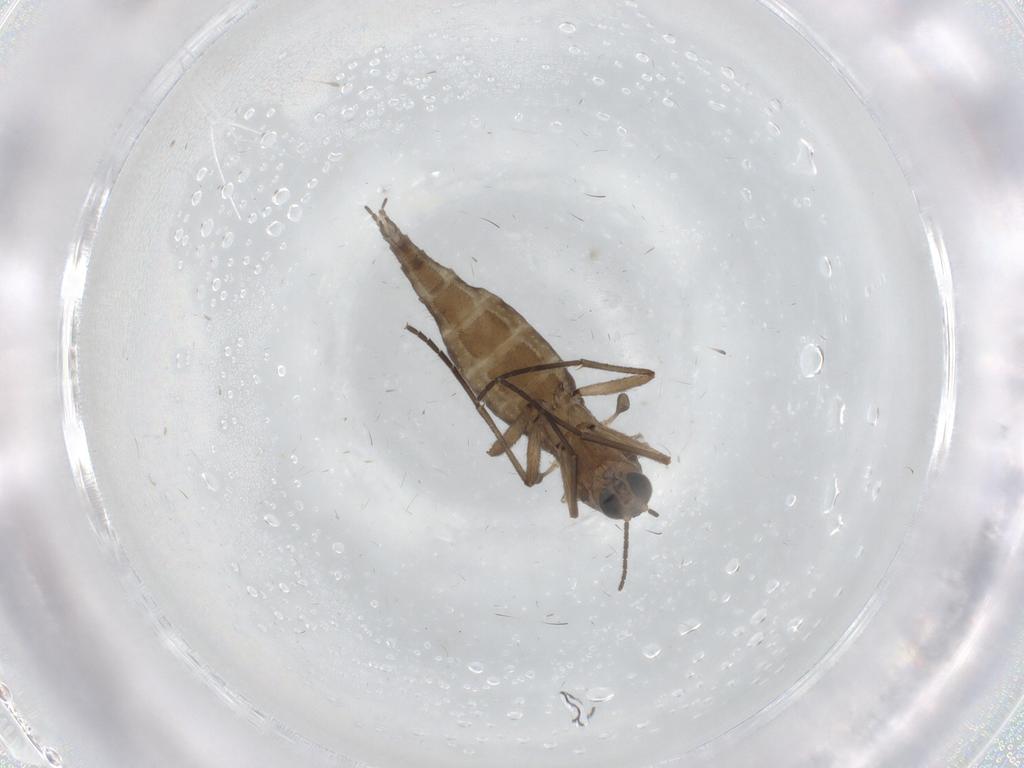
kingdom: Animalia
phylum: Arthropoda
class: Insecta
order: Diptera
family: Sciaridae
